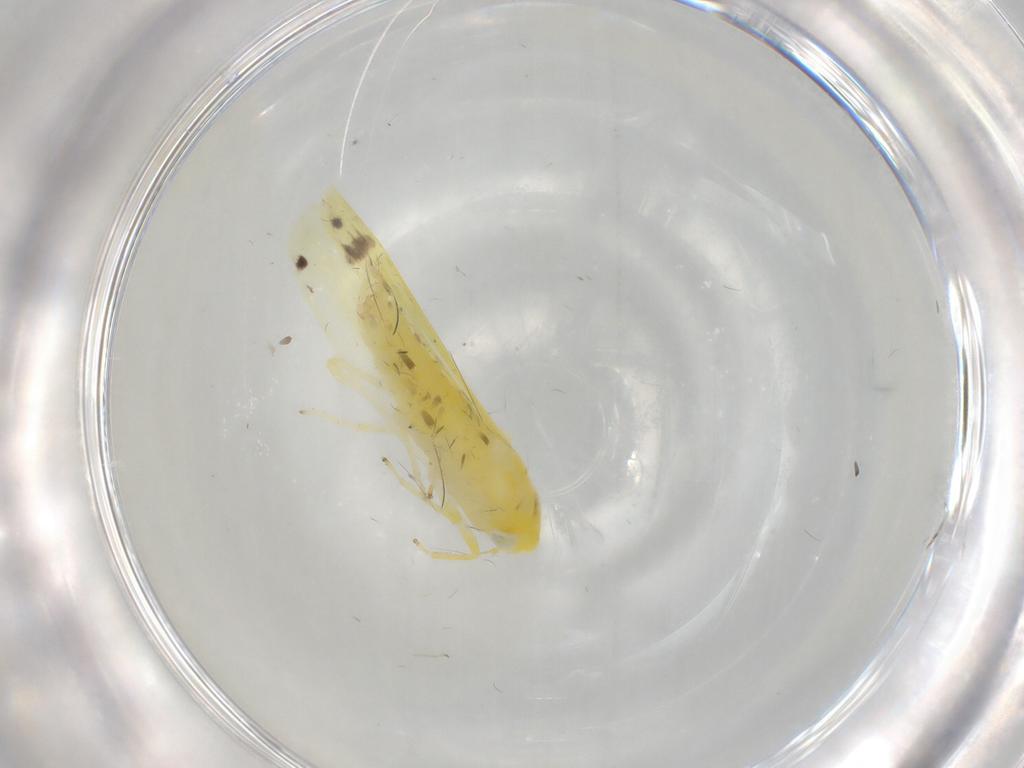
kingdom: Animalia
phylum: Arthropoda
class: Insecta
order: Hemiptera
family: Cicadellidae
